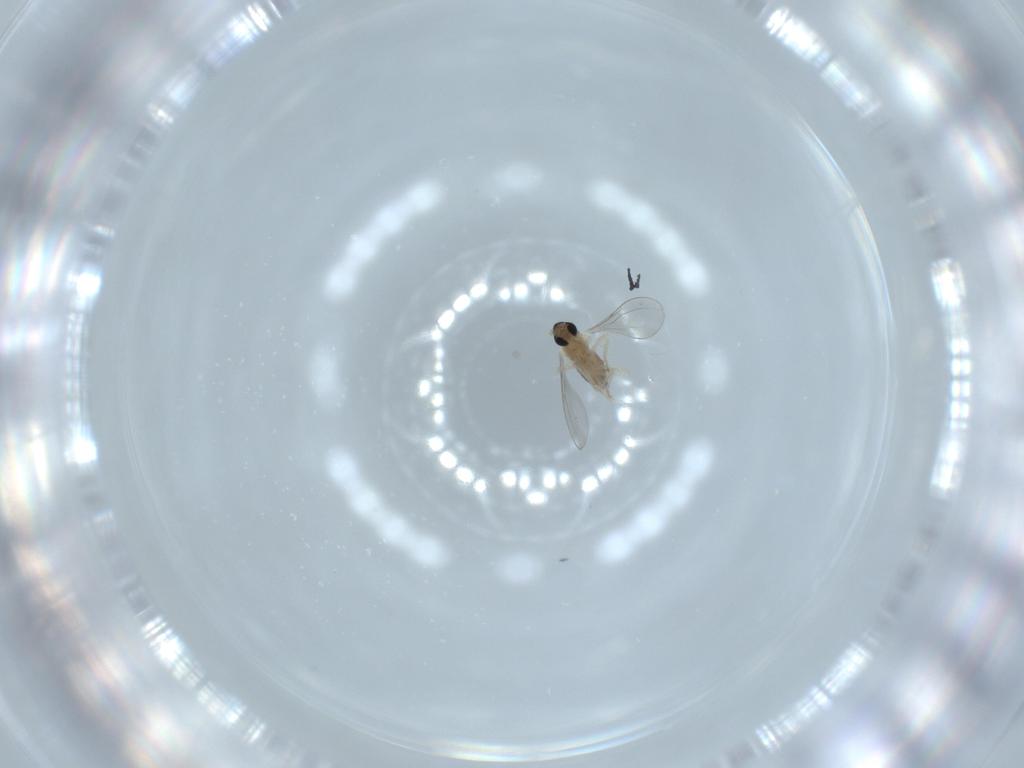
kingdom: Animalia
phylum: Arthropoda
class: Insecta
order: Diptera
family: Cecidomyiidae
